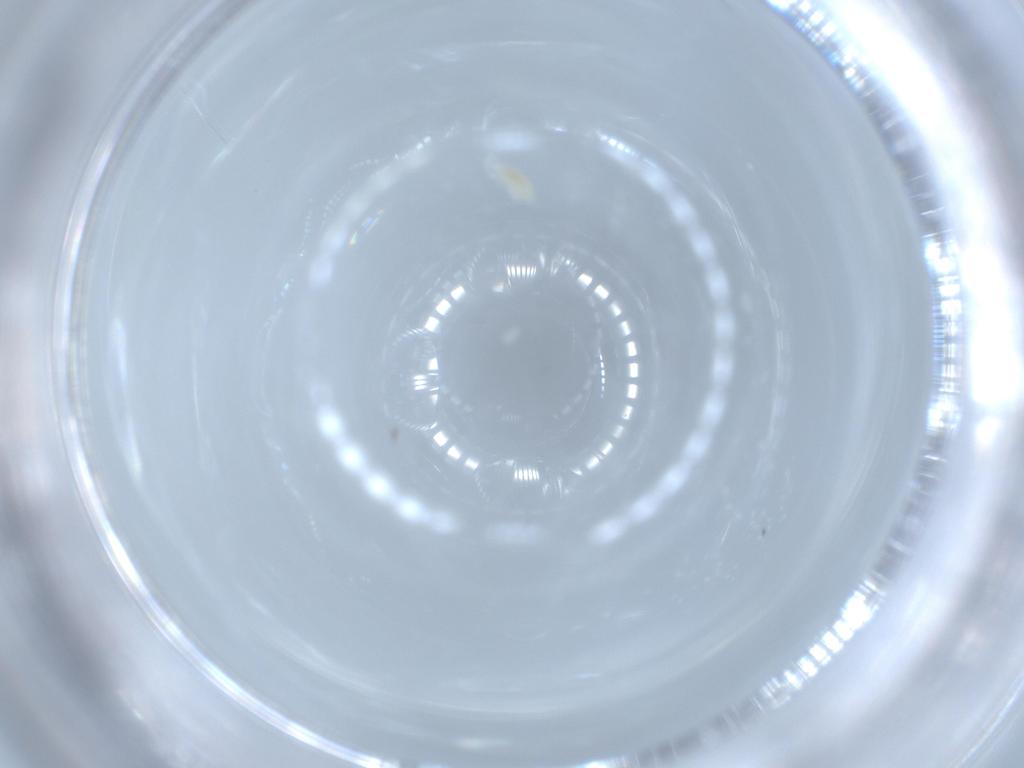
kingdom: Animalia
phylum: Arthropoda
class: Arachnida
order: Trombidiformes
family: Eupodidae
